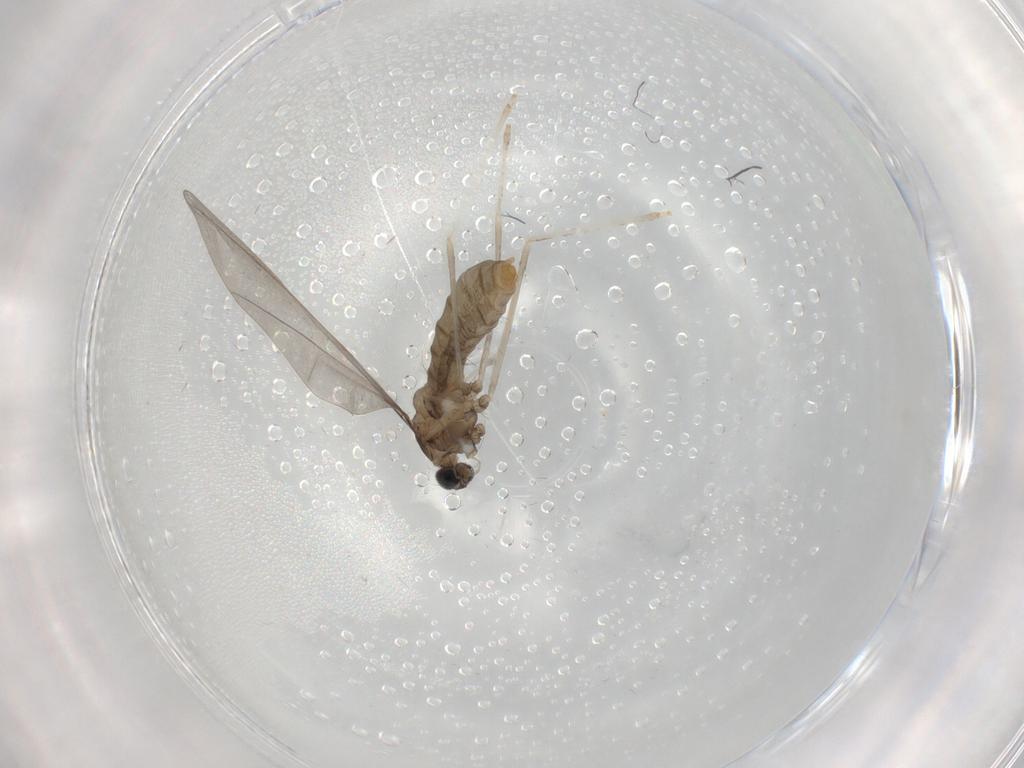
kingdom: Animalia
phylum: Arthropoda
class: Insecta
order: Diptera
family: Cecidomyiidae
